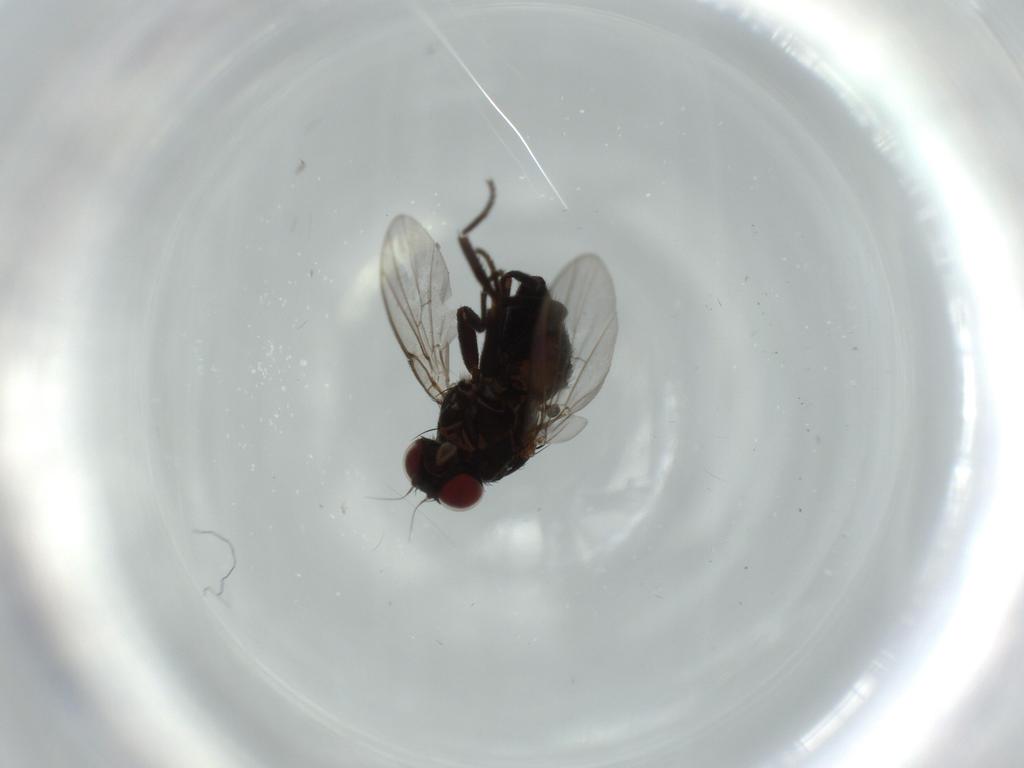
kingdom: Animalia
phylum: Arthropoda
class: Insecta
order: Diptera
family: Agromyzidae
